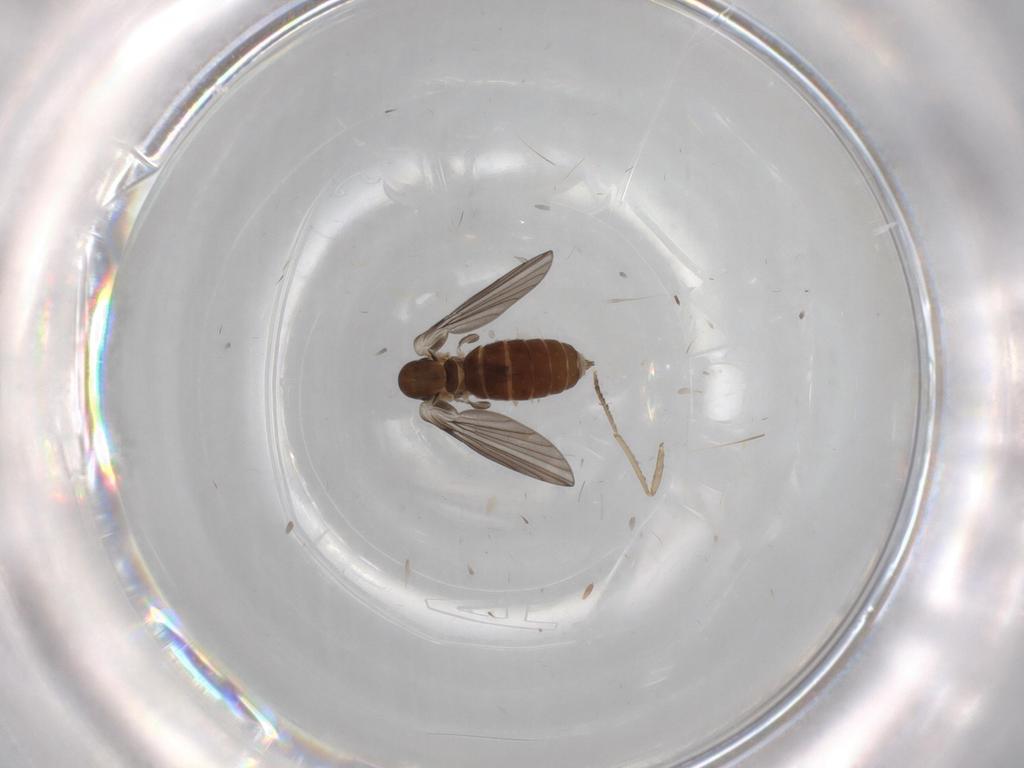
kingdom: Animalia
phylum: Arthropoda
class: Insecta
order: Diptera
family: Psychodidae
